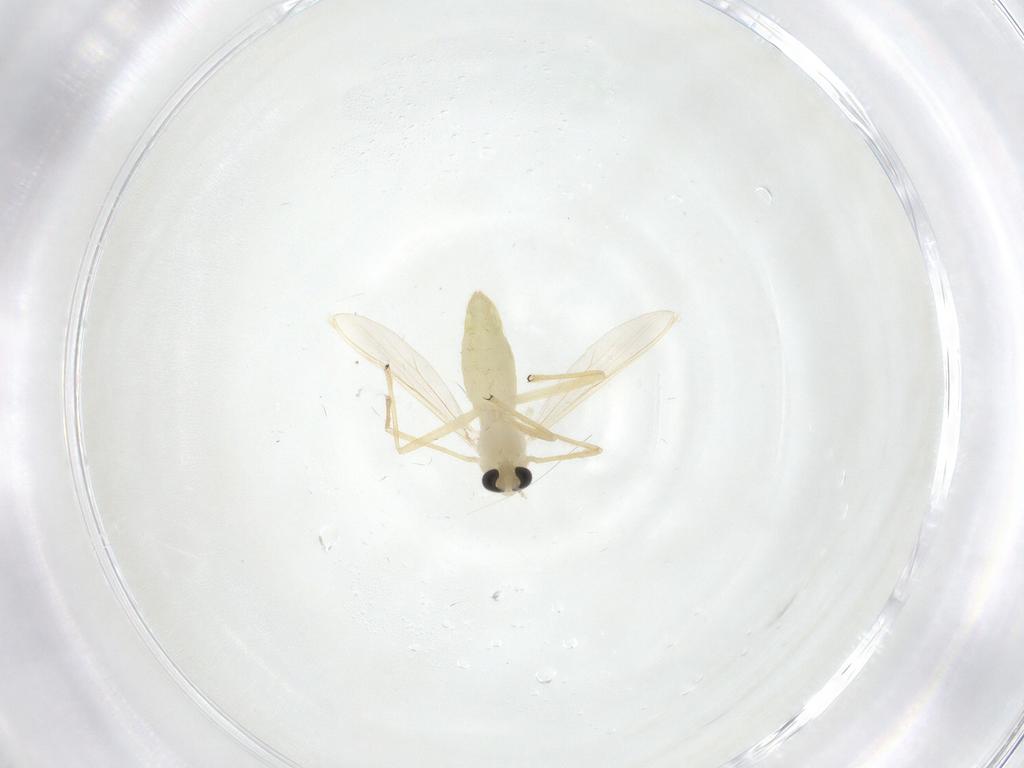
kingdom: Animalia
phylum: Arthropoda
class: Insecta
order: Diptera
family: Chironomidae
